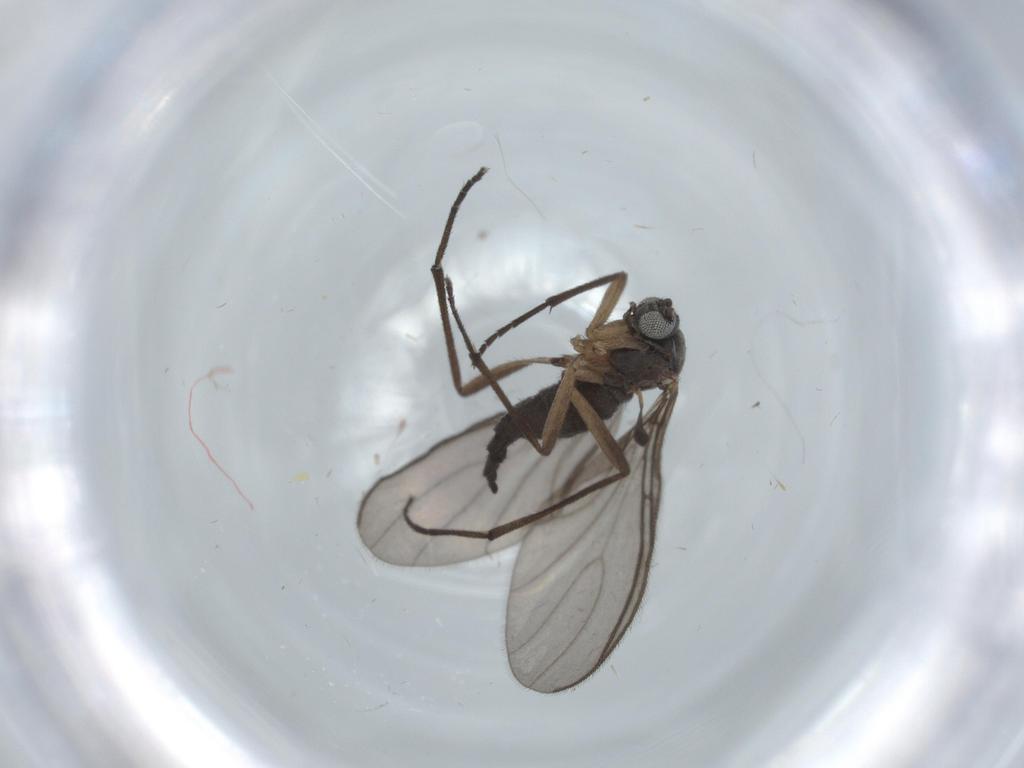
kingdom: Animalia
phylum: Arthropoda
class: Insecta
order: Diptera
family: Sciaridae
